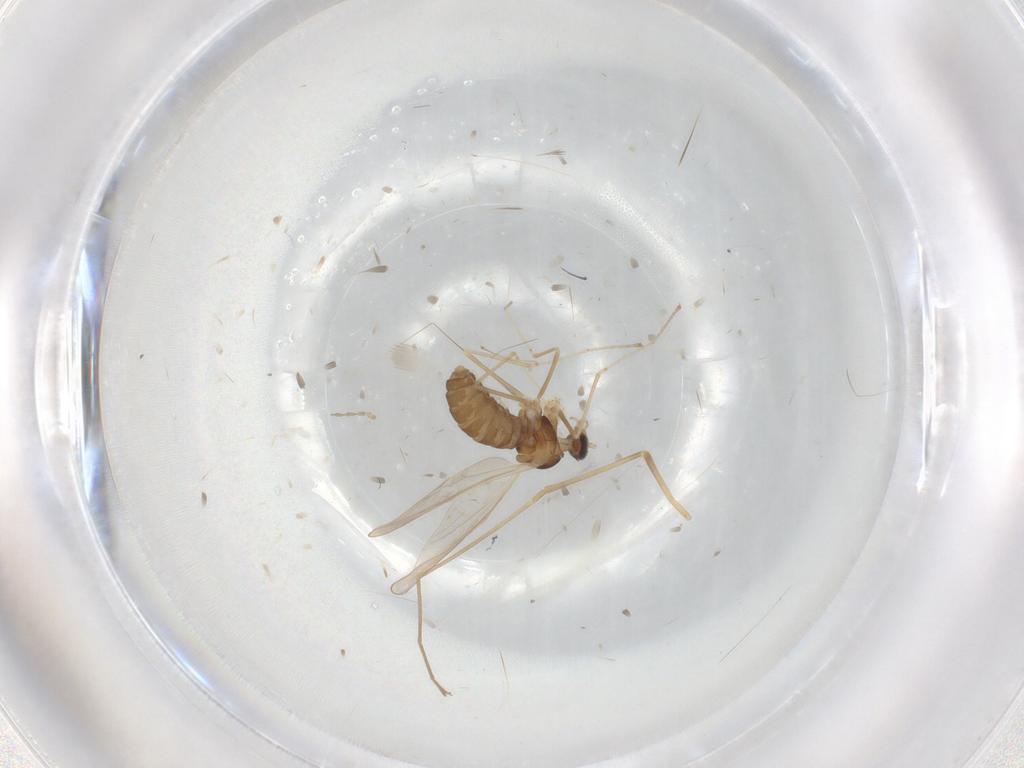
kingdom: Animalia
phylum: Arthropoda
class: Insecta
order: Diptera
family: Cecidomyiidae
